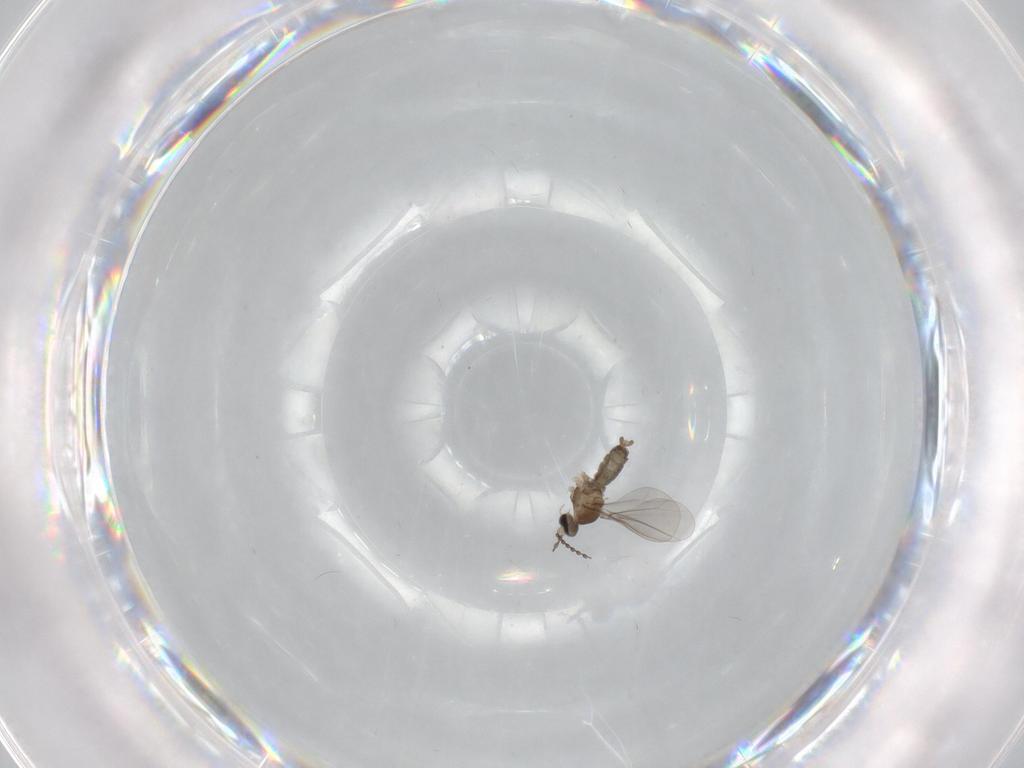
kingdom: Animalia
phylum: Arthropoda
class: Insecta
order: Diptera
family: Cecidomyiidae
